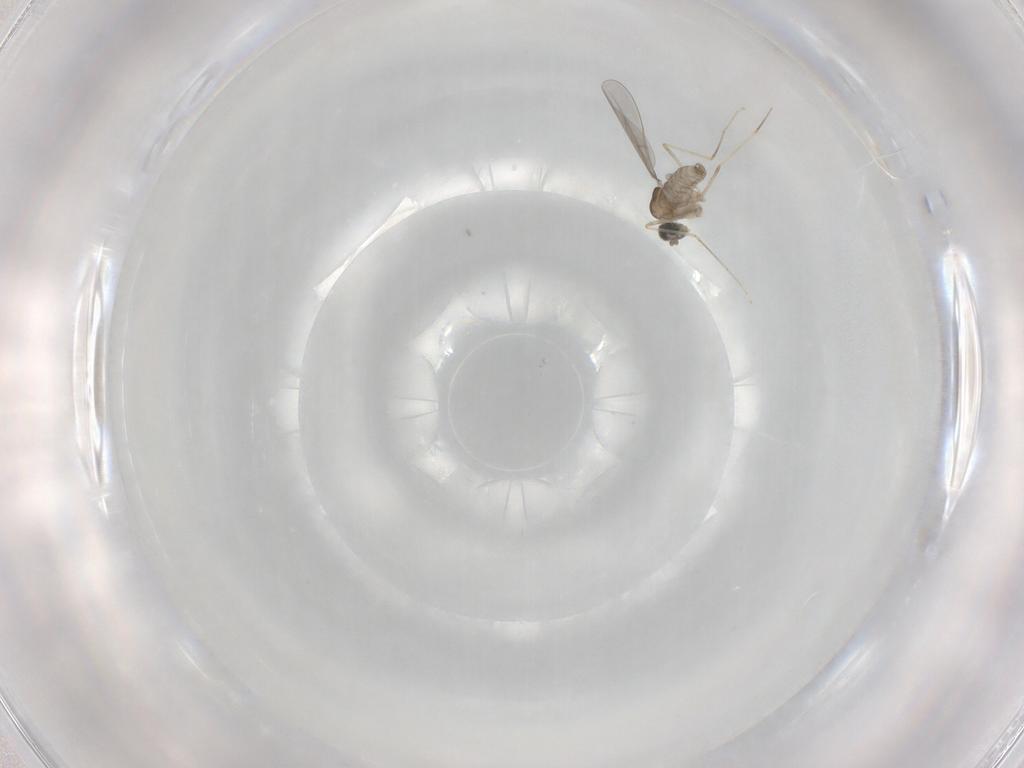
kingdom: Animalia
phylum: Arthropoda
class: Insecta
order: Diptera
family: Cecidomyiidae
